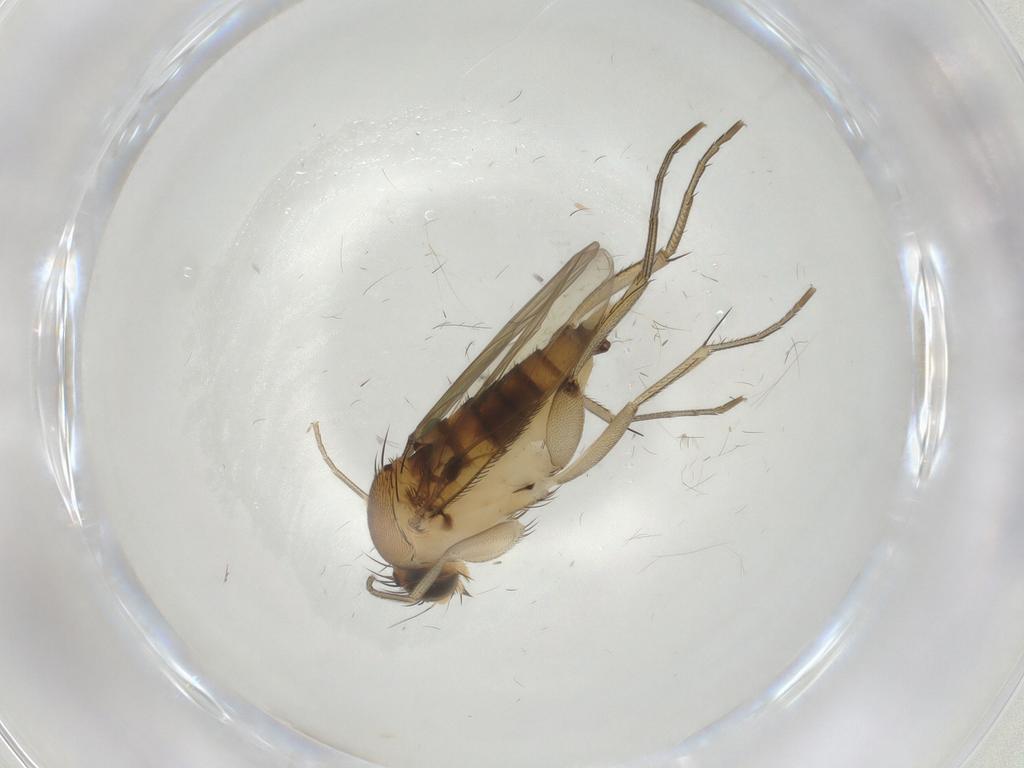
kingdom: Animalia
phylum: Arthropoda
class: Insecta
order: Diptera
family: Phoridae
